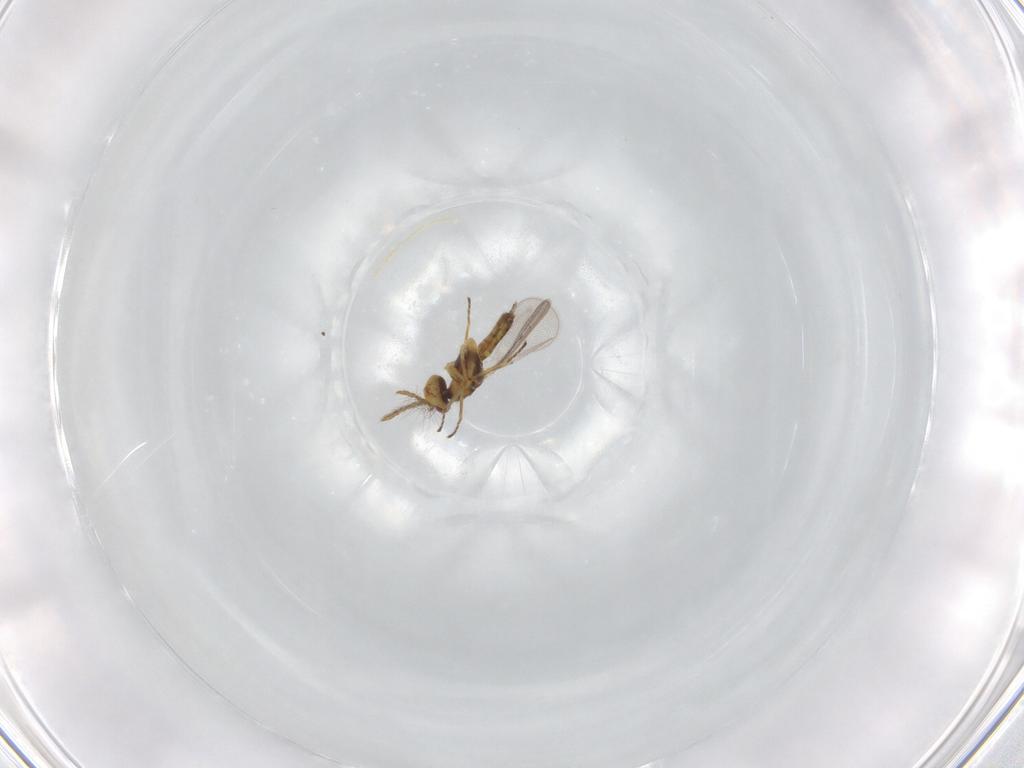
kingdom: Animalia
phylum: Arthropoda
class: Insecta
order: Hymenoptera
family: Eulophidae
